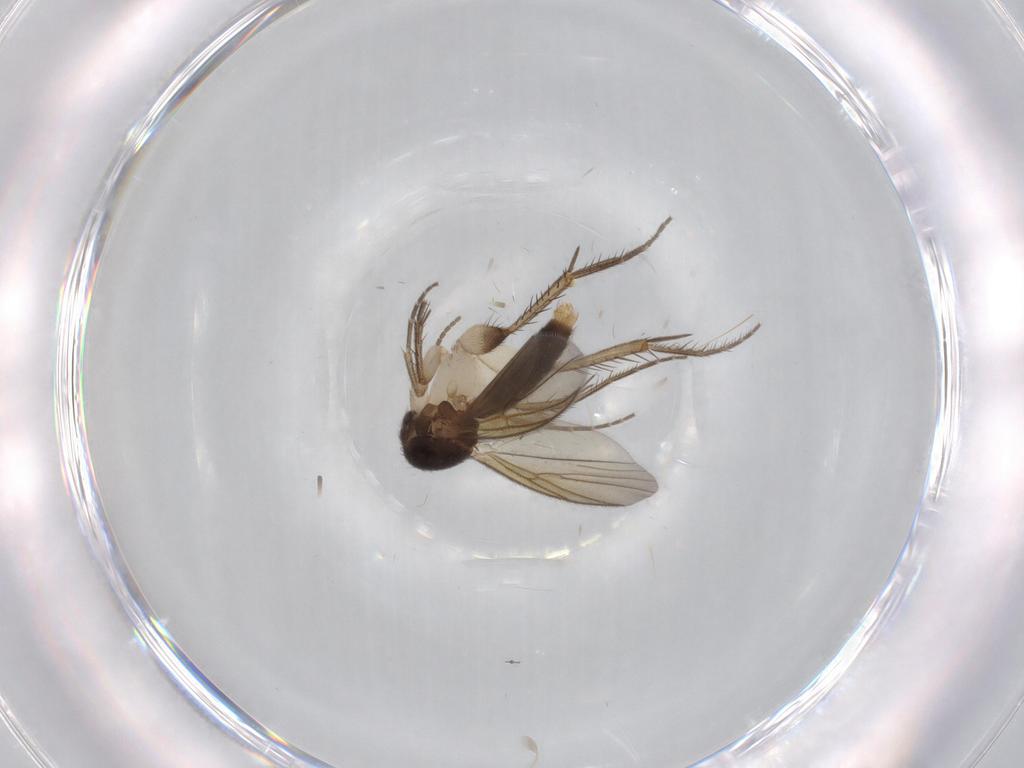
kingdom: Animalia
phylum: Arthropoda
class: Insecta
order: Diptera
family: Mycetophilidae
